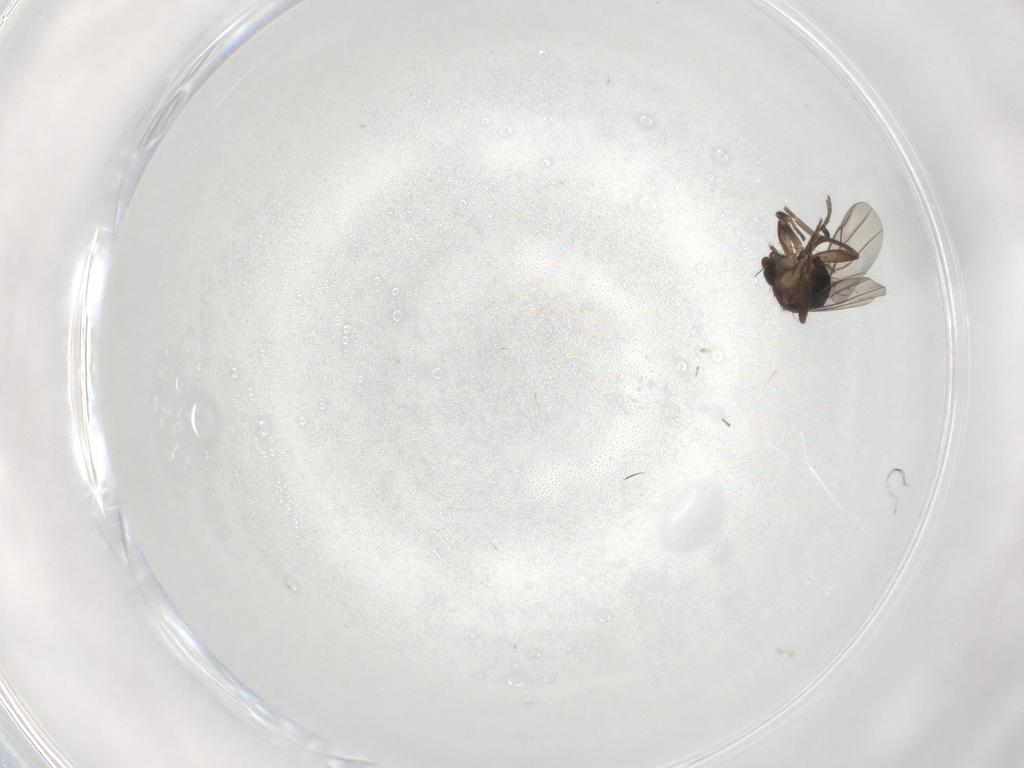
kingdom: Animalia
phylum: Arthropoda
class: Insecta
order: Diptera
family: Phoridae
